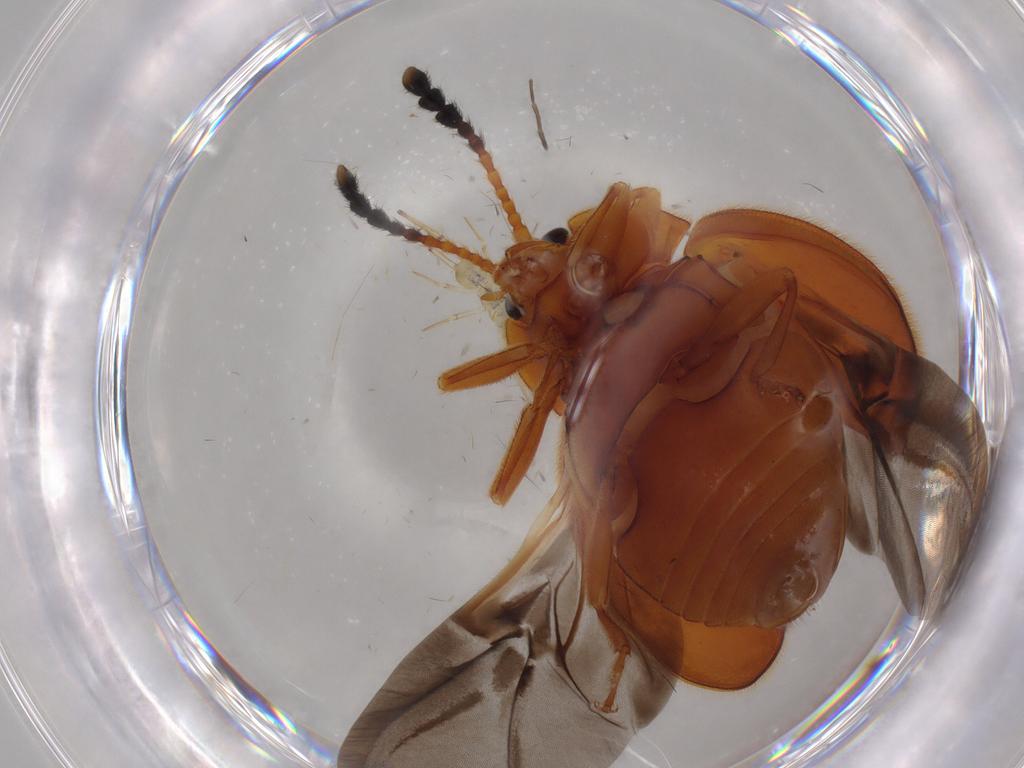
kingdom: Animalia
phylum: Arthropoda
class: Insecta
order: Coleoptera
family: Endomychidae
